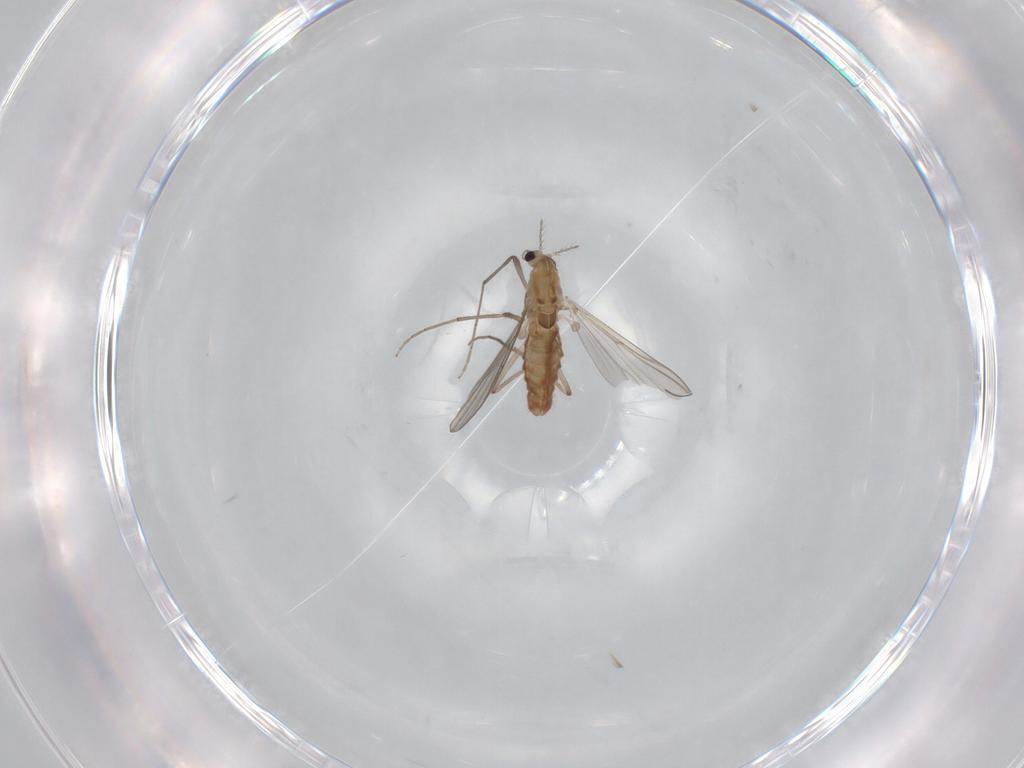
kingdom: Animalia
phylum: Arthropoda
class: Insecta
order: Diptera
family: Chironomidae
